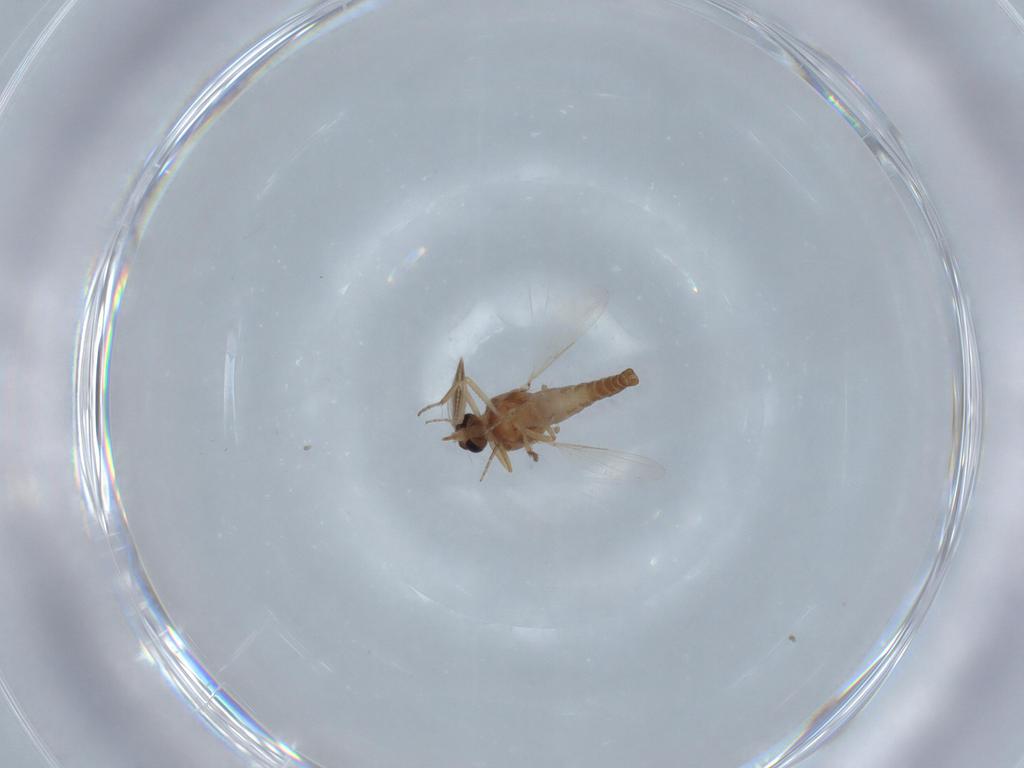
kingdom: Animalia
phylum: Arthropoda
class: Insecta
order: Diptera
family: Ceratopogonidae
